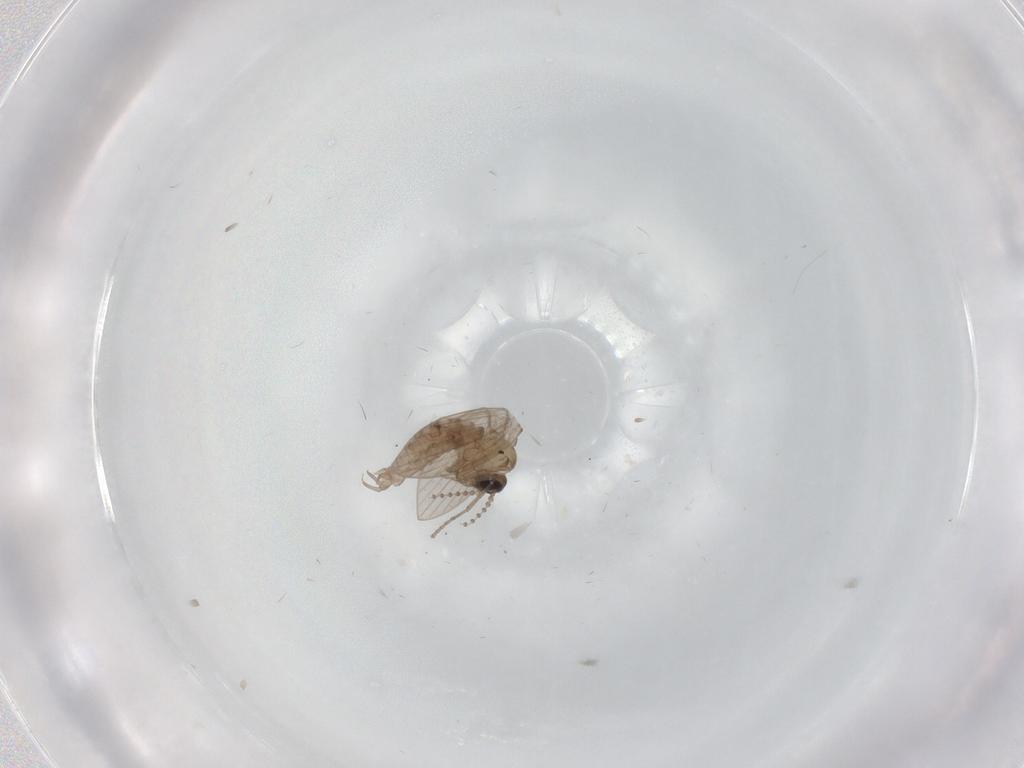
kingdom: Animalia
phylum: Arthropoda
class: Insecta
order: Diptera
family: Psychodidae
